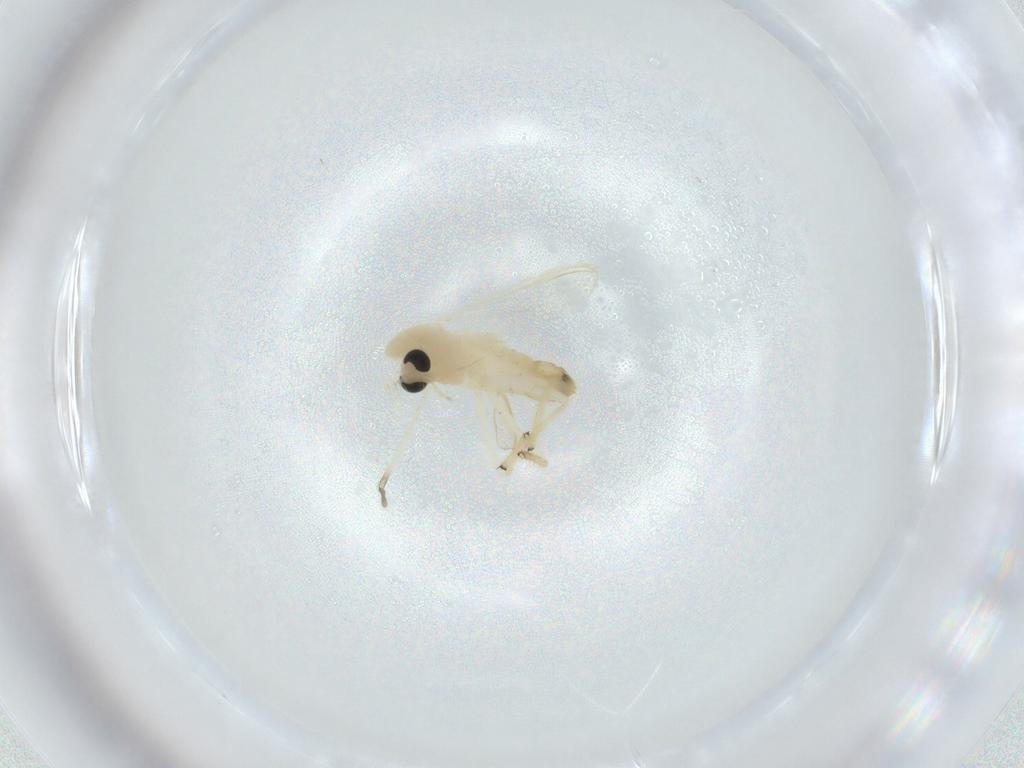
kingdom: Animalia
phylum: Arthropoda
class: Insecta
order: Diptera
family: Chironomidae
